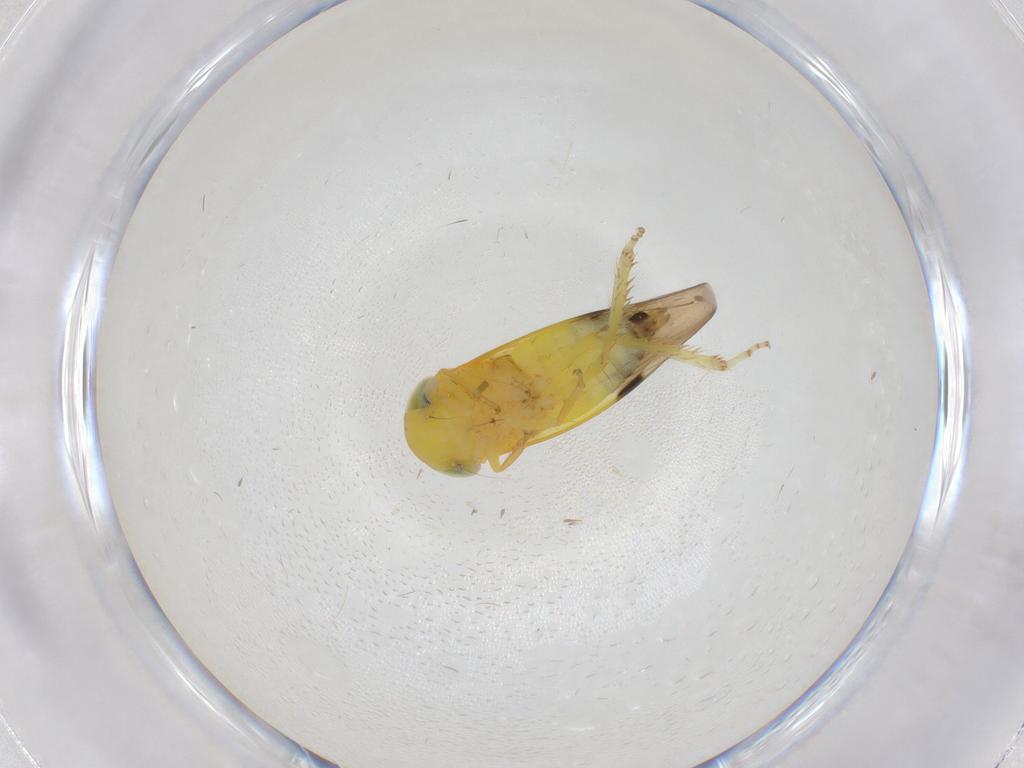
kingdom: Animalia
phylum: Arthropoda
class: Insecta
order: Hemiptera
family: Cicadellidae
